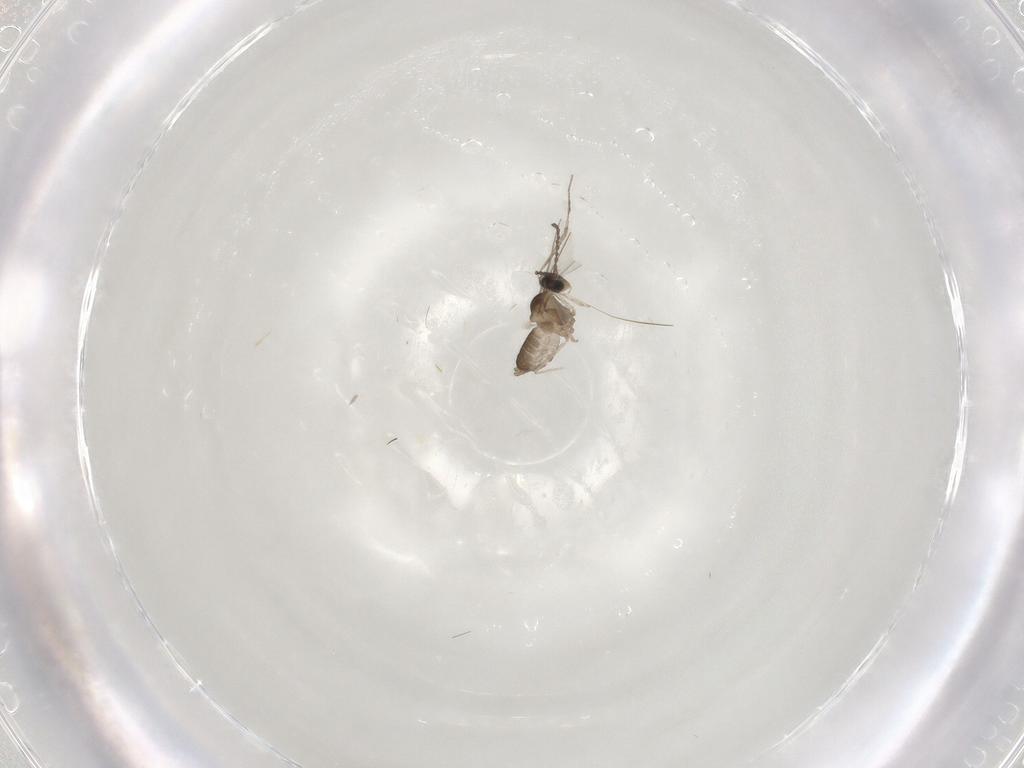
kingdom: Animalia
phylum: Arthropoda
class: Insecta
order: Diptera
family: Cecidomyiidae
